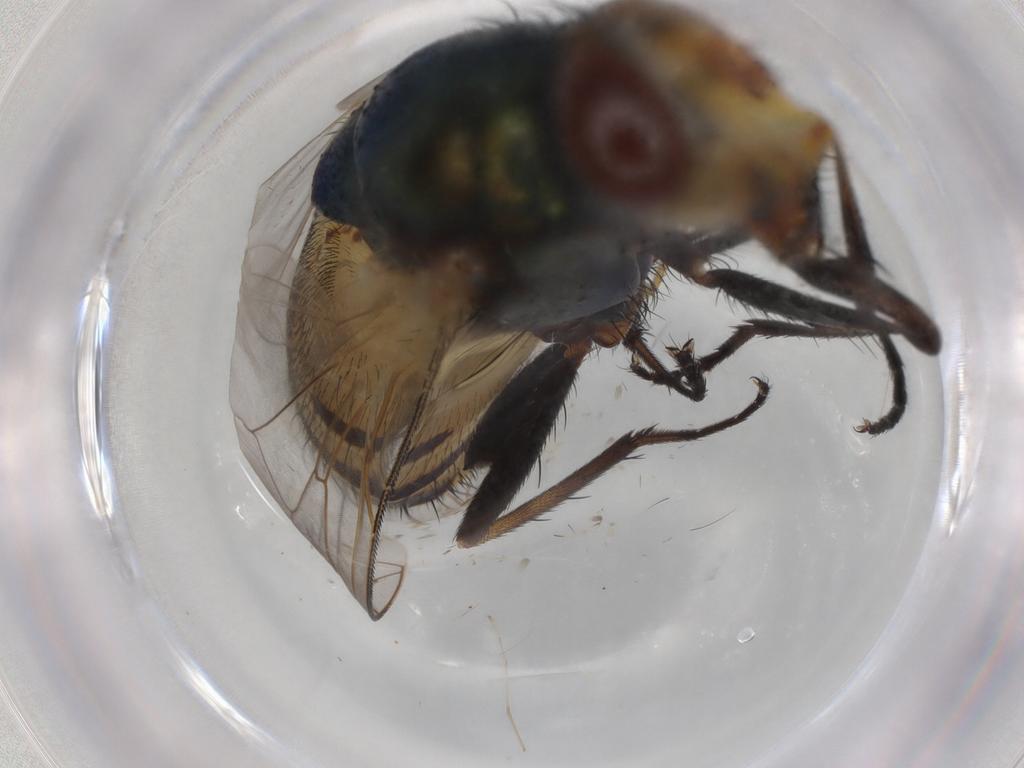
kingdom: Animalia
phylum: Arthropoda
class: Insecta
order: Diptera
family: Calliphoridae
